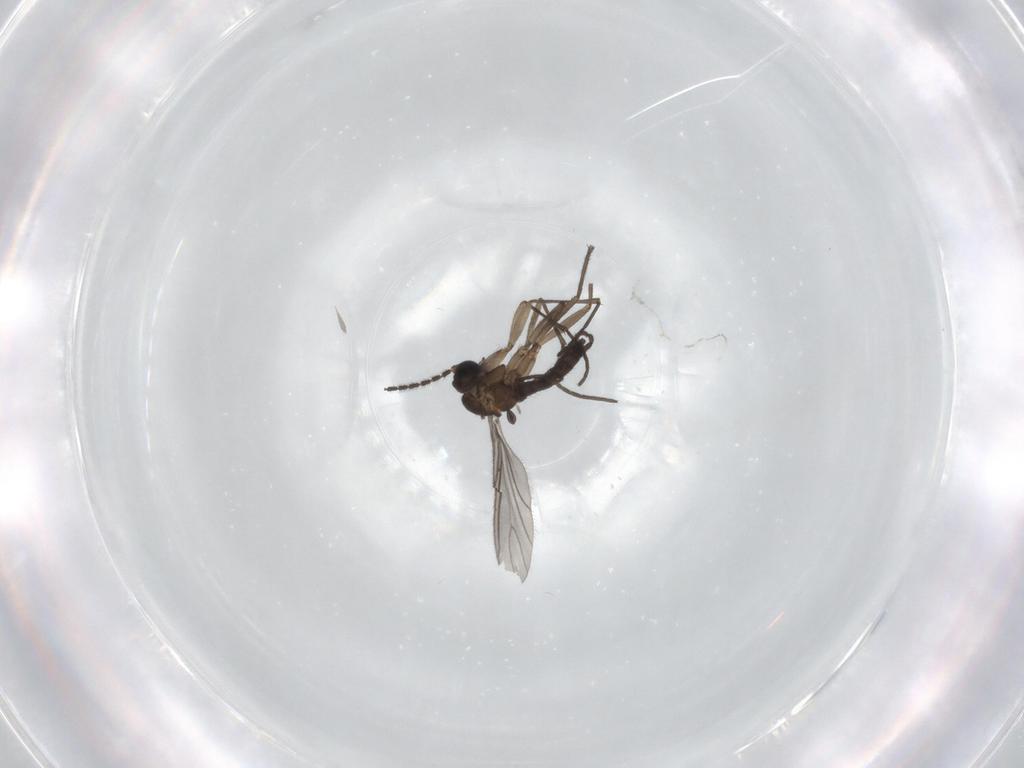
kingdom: Animalia
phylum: Arthropoda
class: Insecta
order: Diptera
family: Sciaridae
